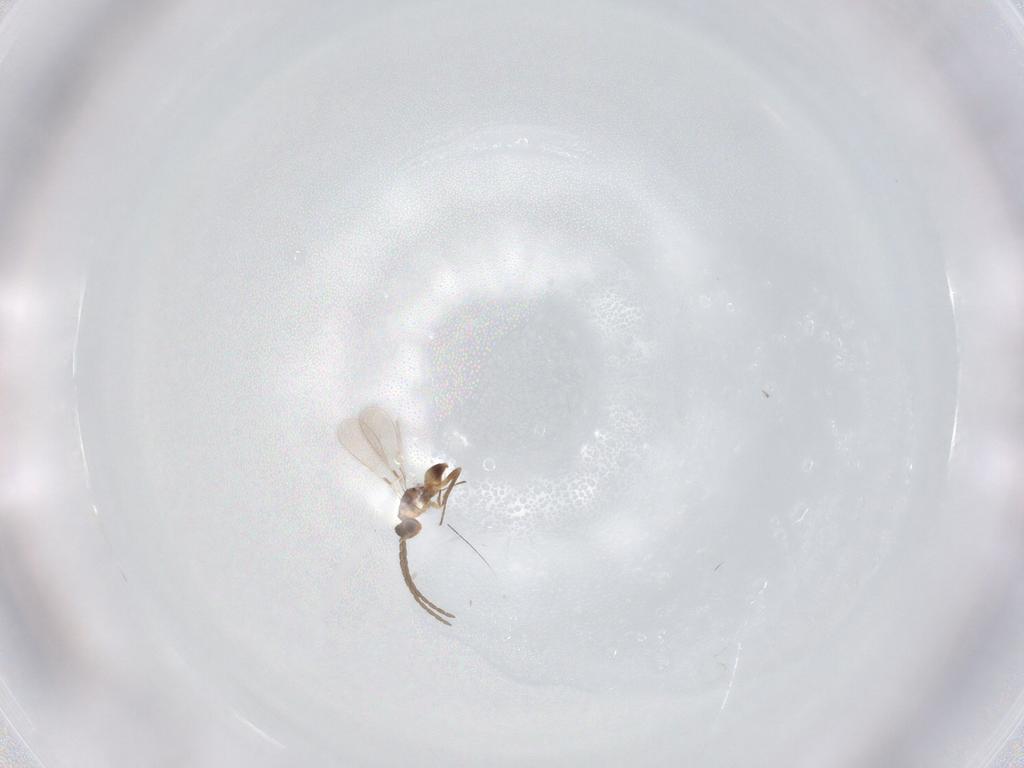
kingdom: Animalia
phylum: Arthropoda
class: Insecta
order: Hymenoptera
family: Mymaridae
